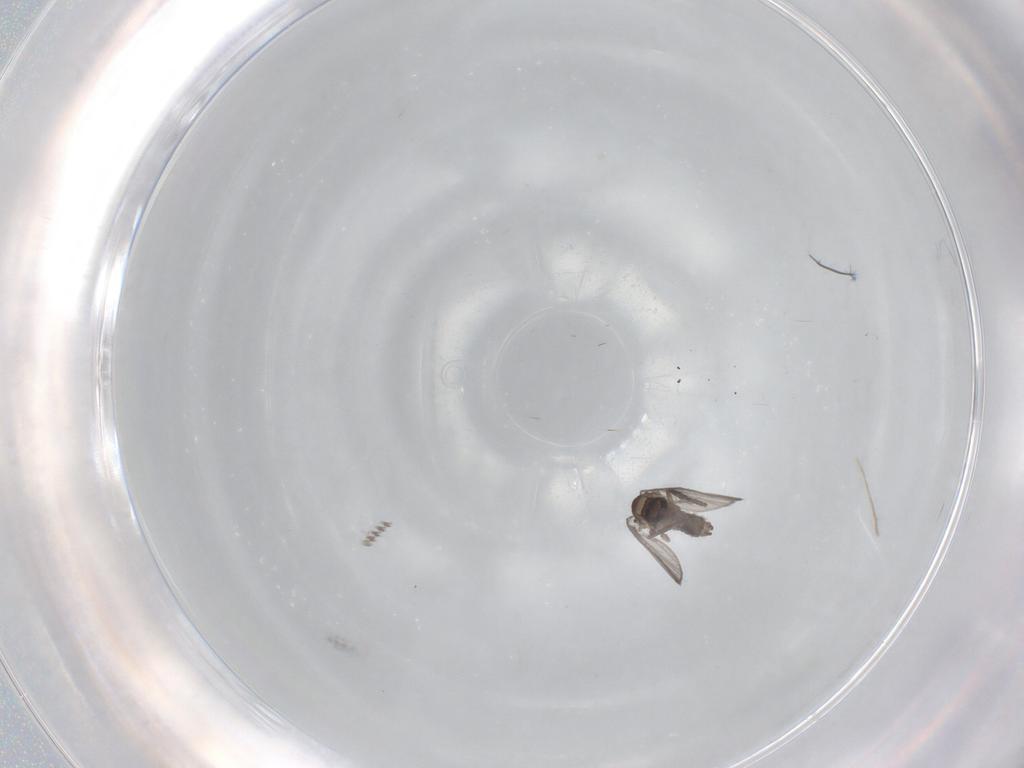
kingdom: Animalia
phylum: Arthropoda
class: Insecta
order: Diptera
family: Psychodidae
